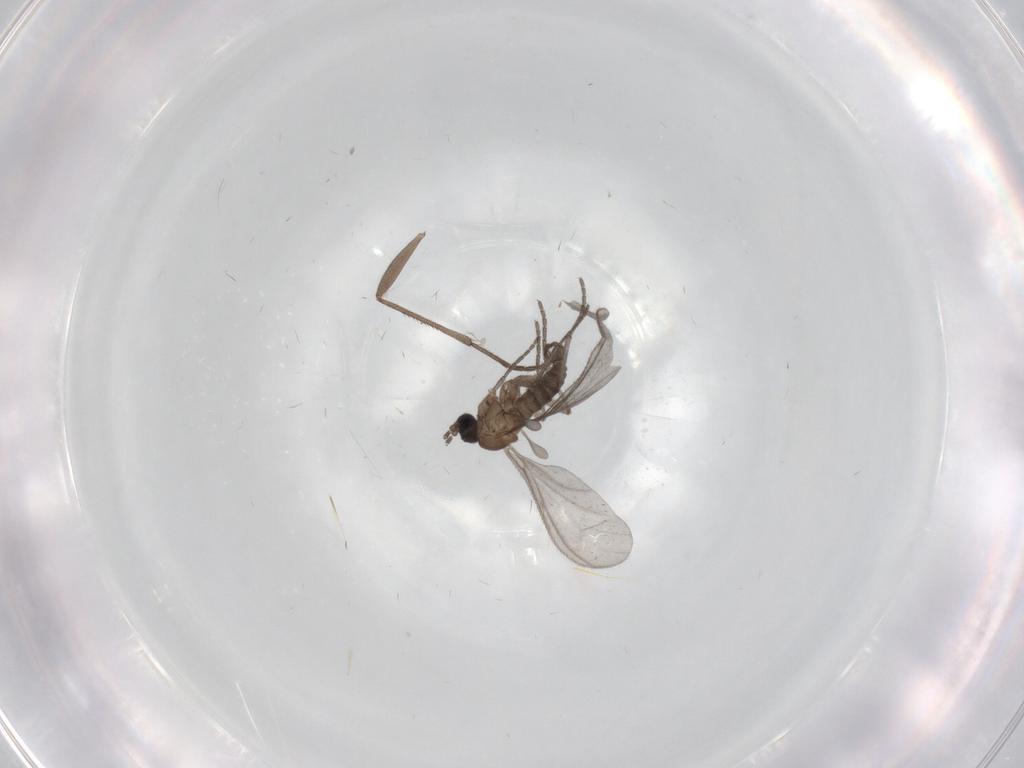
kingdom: Animalia
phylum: Arthropoda
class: Insecta
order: Diptera
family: Sciaridae
